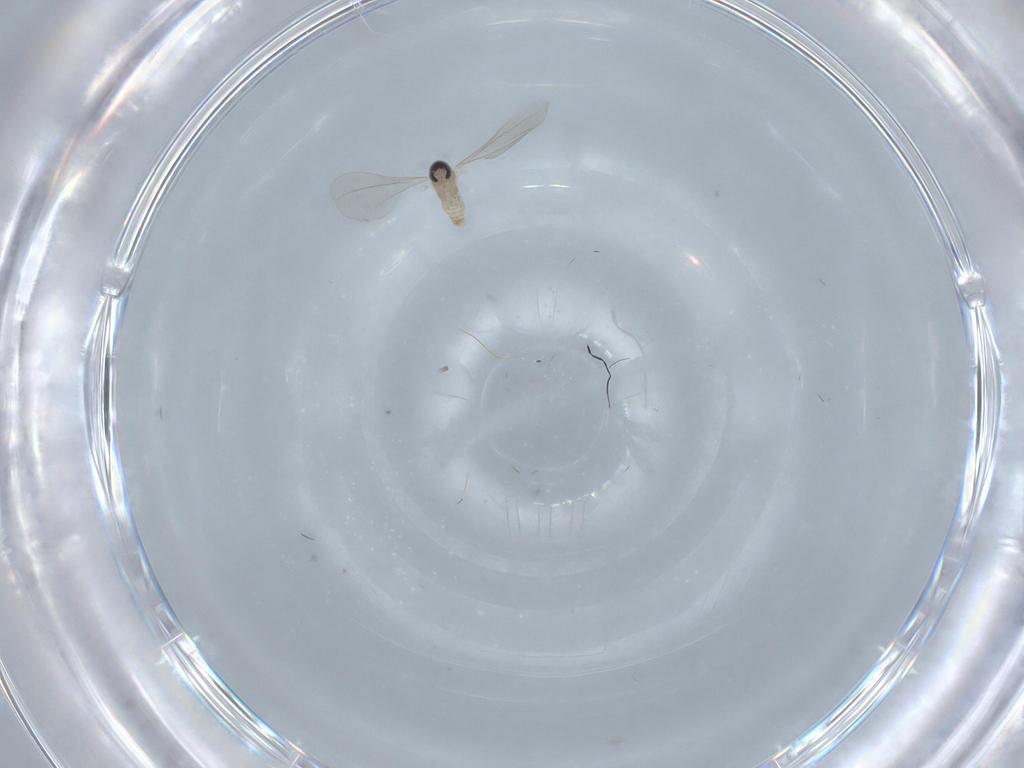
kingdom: Animalia
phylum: Arthropoda
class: Insecta
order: Diptera
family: Cecidomyiidae
